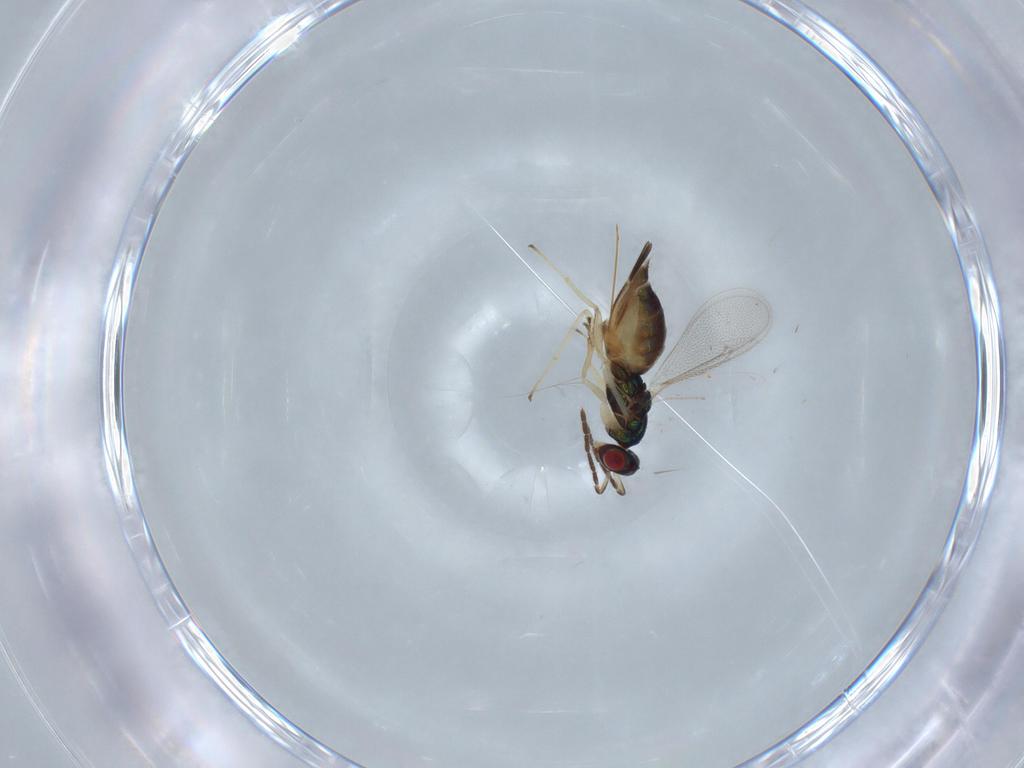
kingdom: Animalia
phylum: Arthropoda
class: Insecta
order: Hymenoptera
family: Eulophidae
